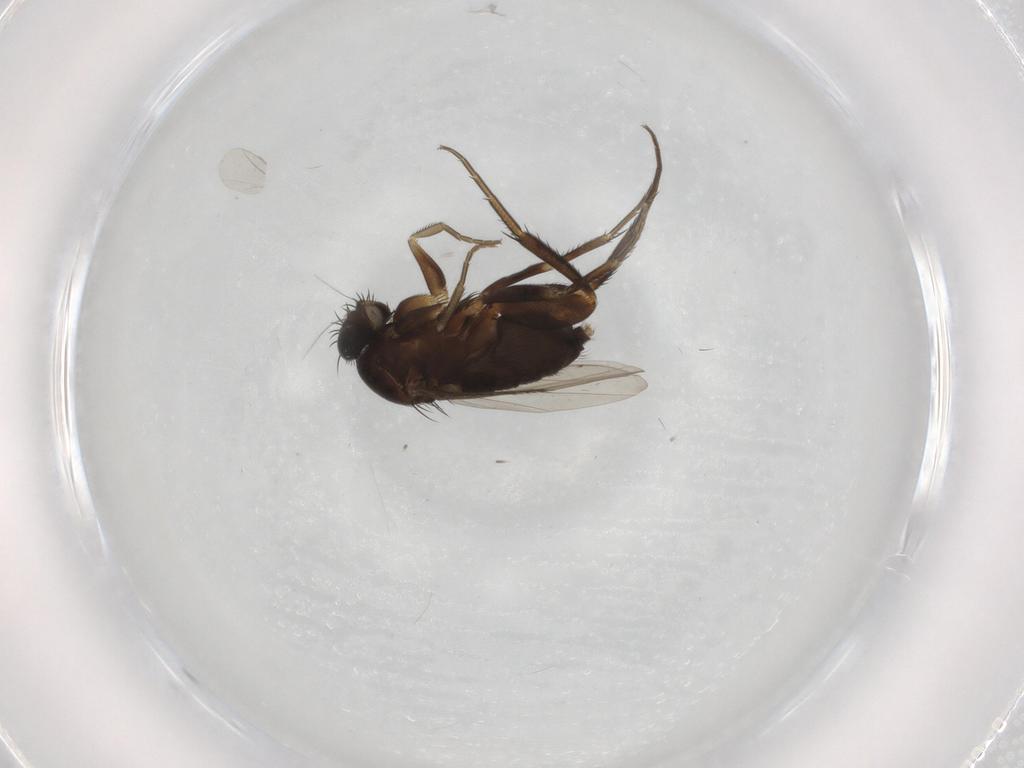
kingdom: Animalia
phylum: Arthropoda
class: Insecta
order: Diptera
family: Phoridae
